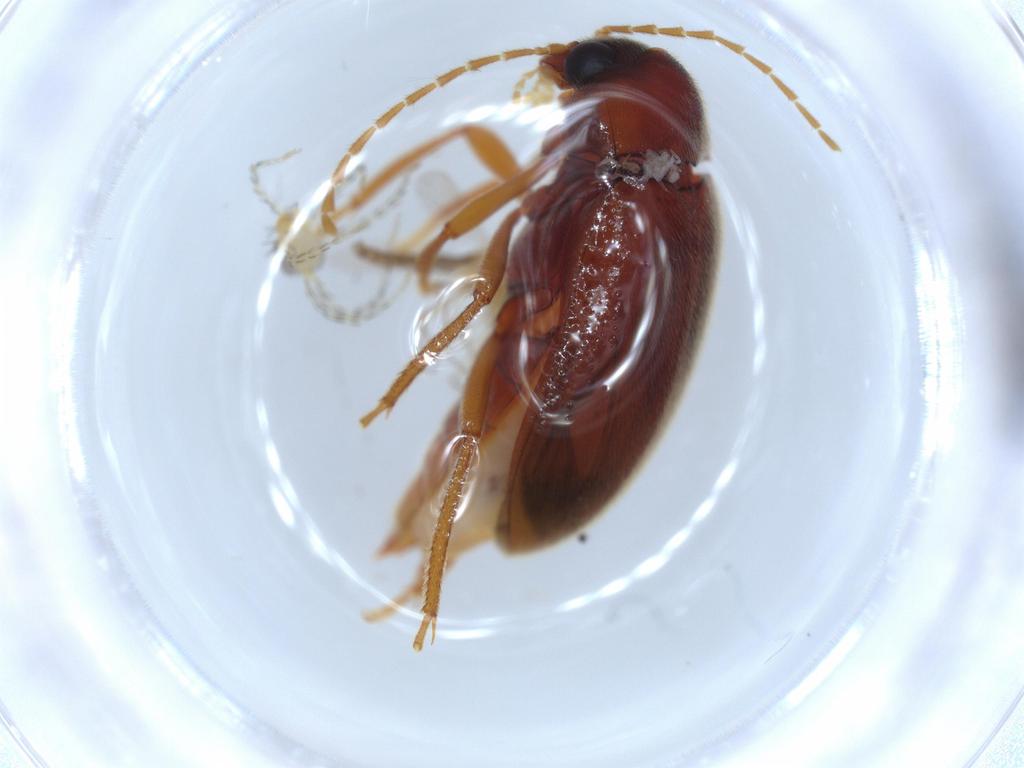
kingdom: Animalia
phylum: Arthropoda
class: Insecta
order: Coleoptera
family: Ptilodactylidae
